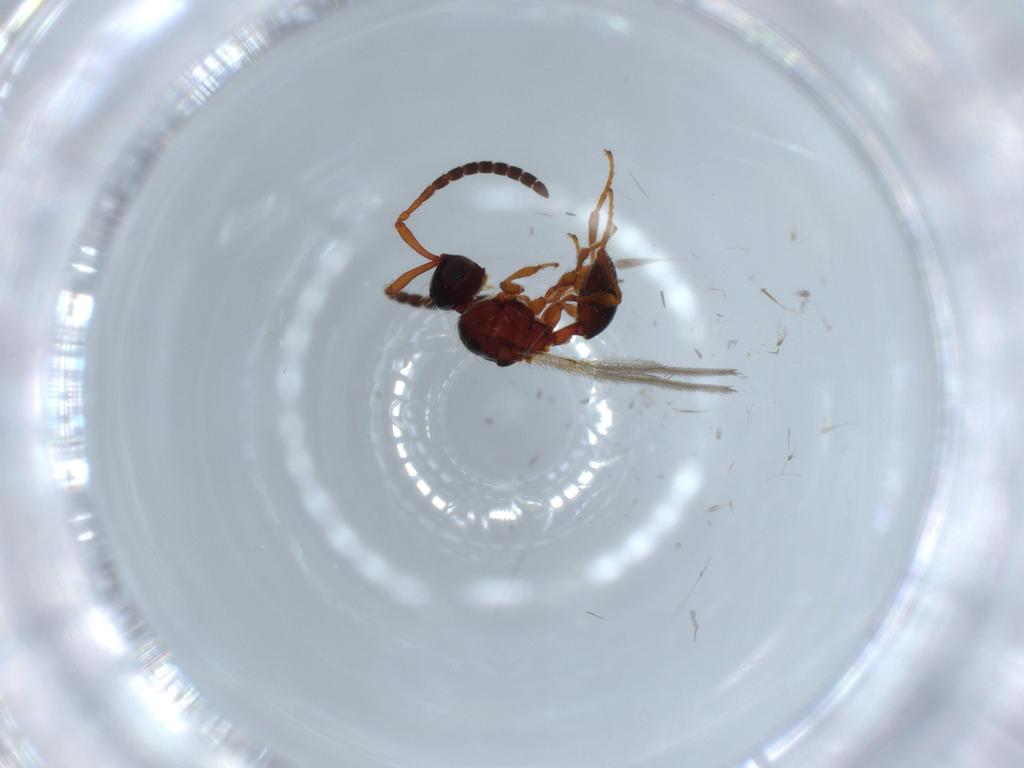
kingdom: Animalia
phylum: Arthropoda
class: Insecta
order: Hymenoptera
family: Diapriidae
